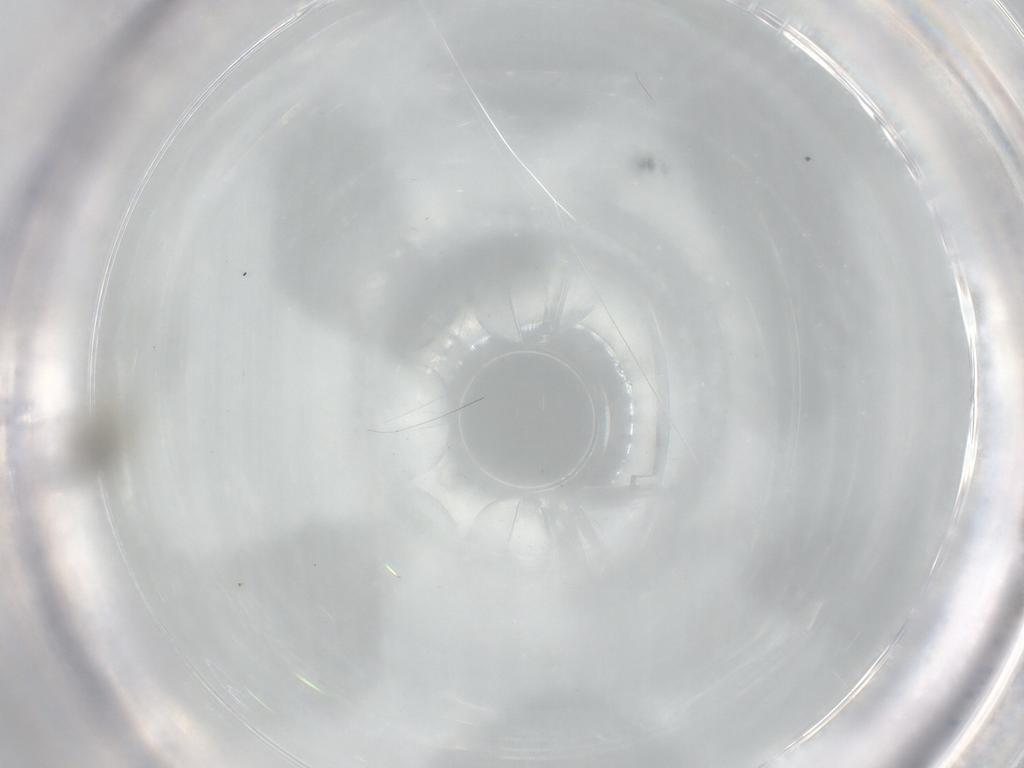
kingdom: Animalia
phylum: Arthropoda
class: Insecta
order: Diptera
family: Cecidomyiidae
